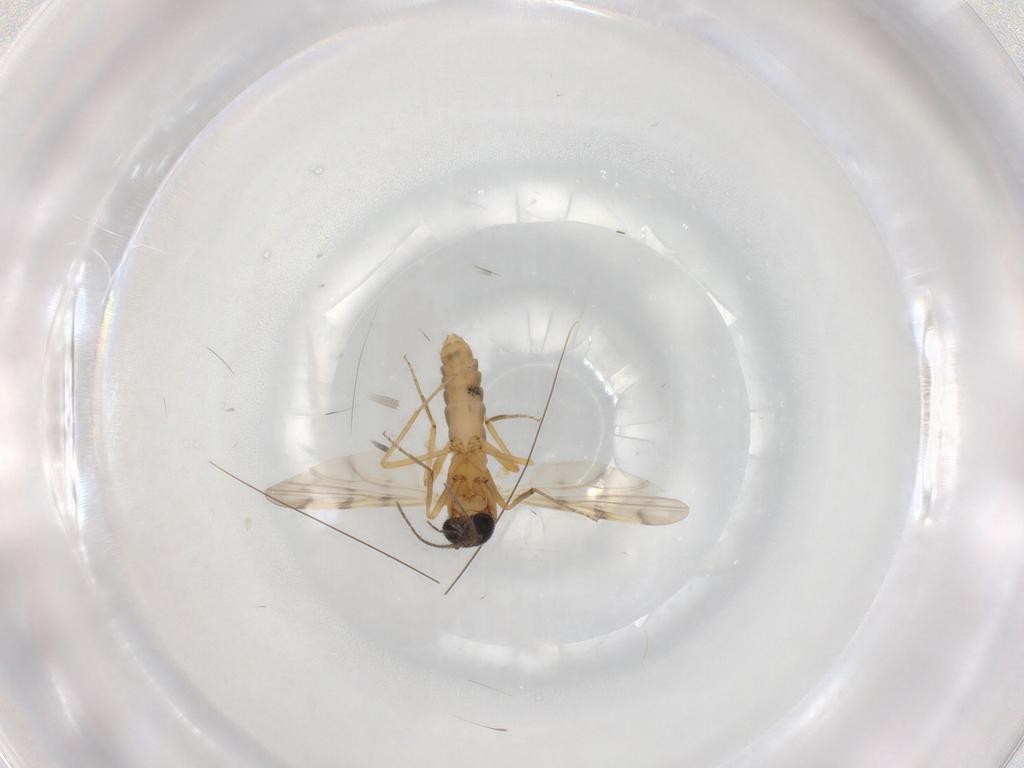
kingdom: Animalia
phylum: Arthropoda
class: Insecta
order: Diptera
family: Ceratopogonidae
